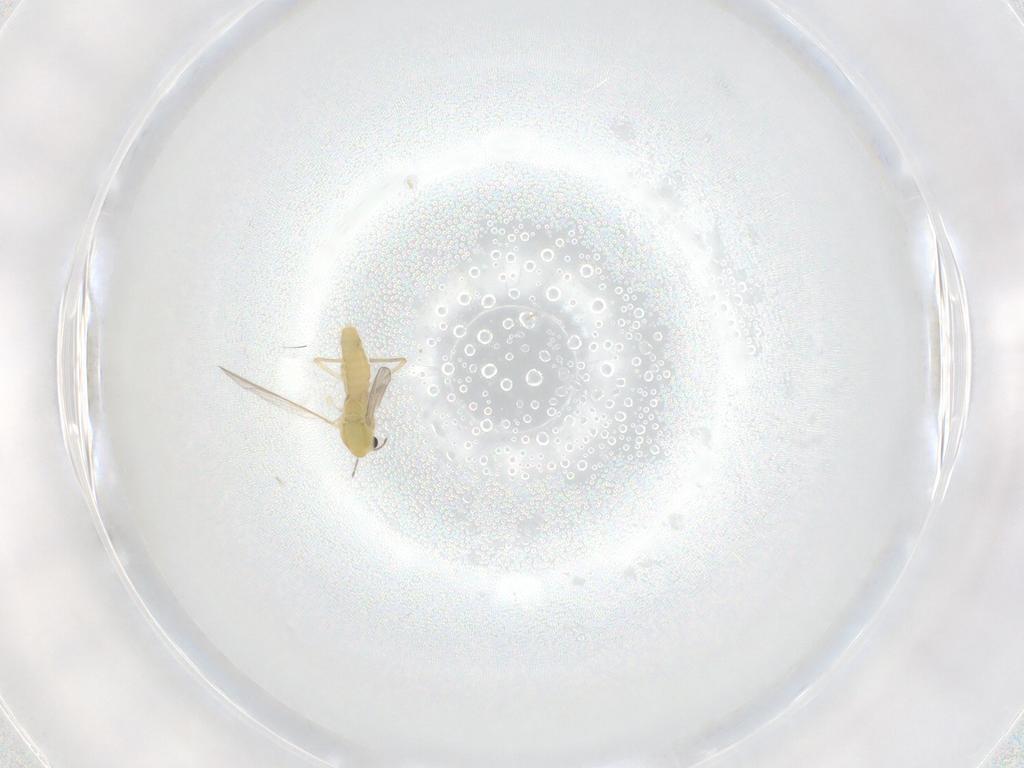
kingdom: Animalia
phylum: Arthropoda
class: Insecta
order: Diptera
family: Chironomidae
